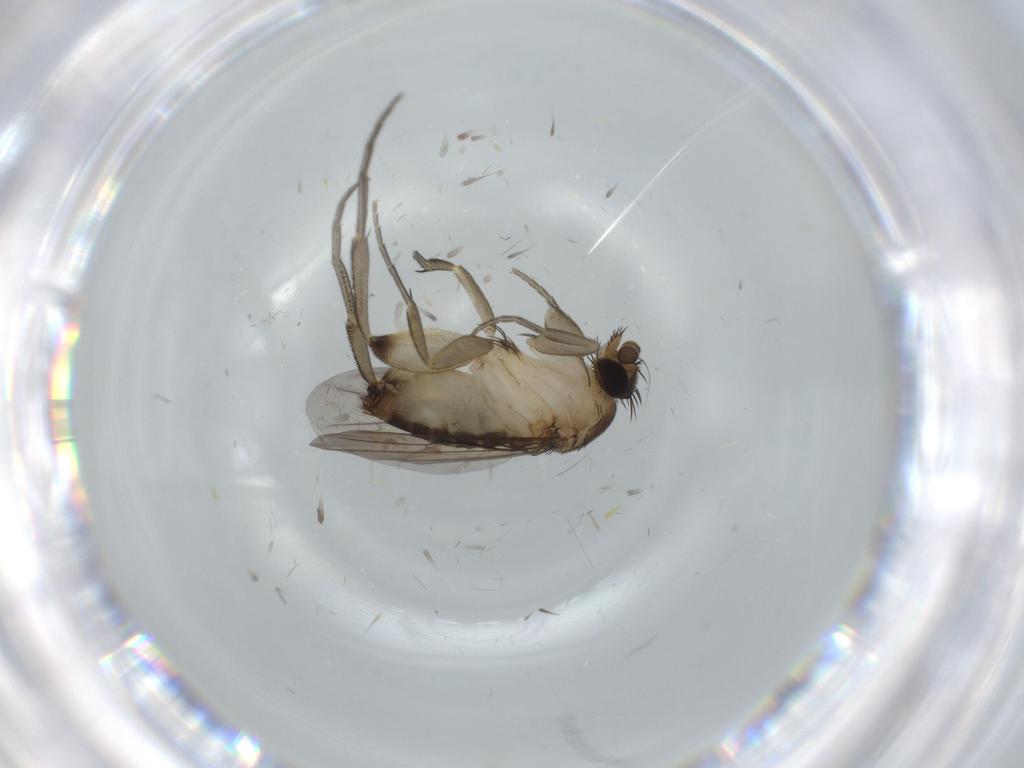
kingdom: Animalia
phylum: Arthropoda
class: Insecta
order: Diptera
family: Phoridae
